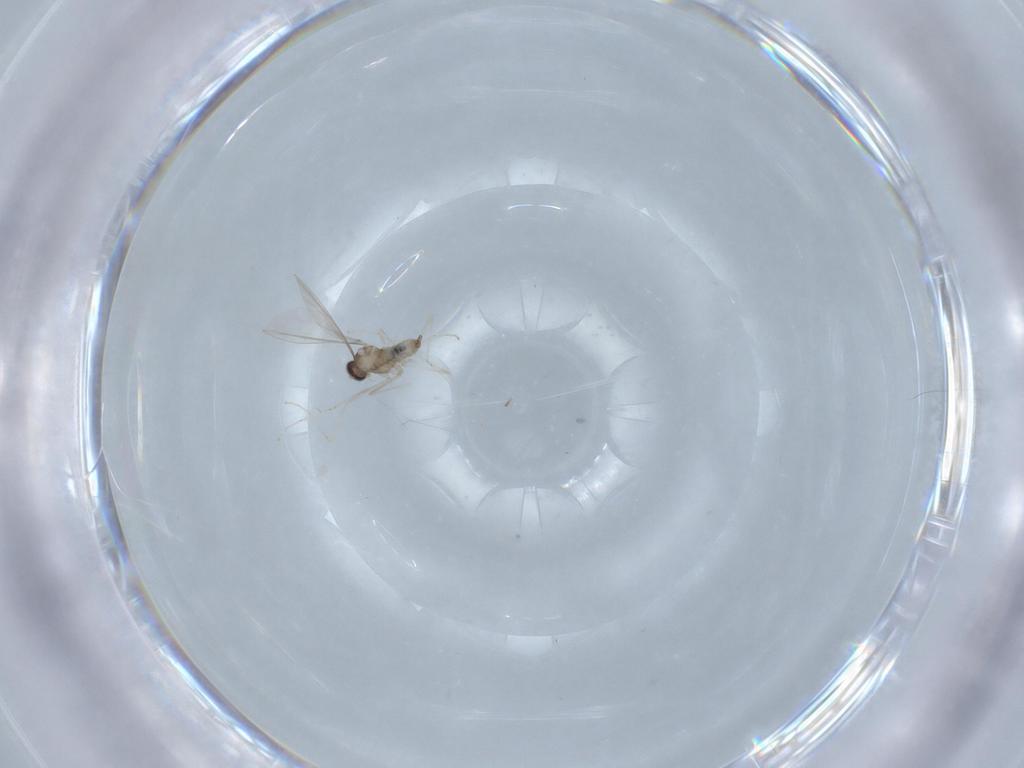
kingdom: Animalia
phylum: Arthropoda
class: Insecta
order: Diptera
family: Cecidomyiidae
